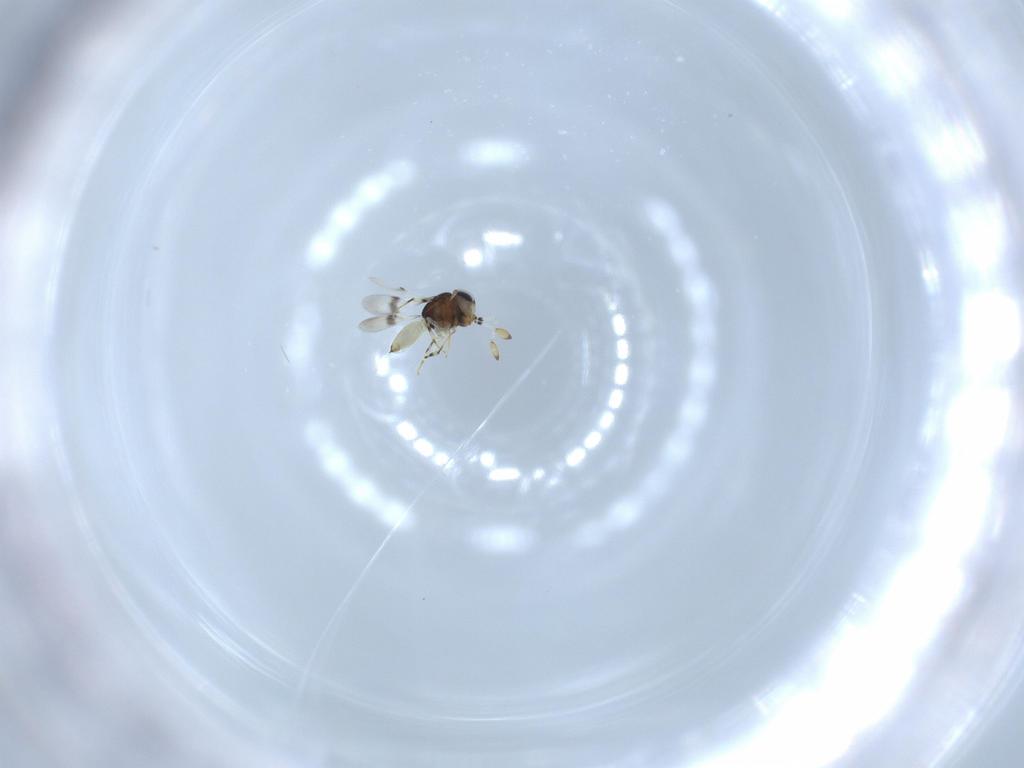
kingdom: Animalia
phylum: Arthropoda
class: Insecta
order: Hymenoptera
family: Scelionidae
